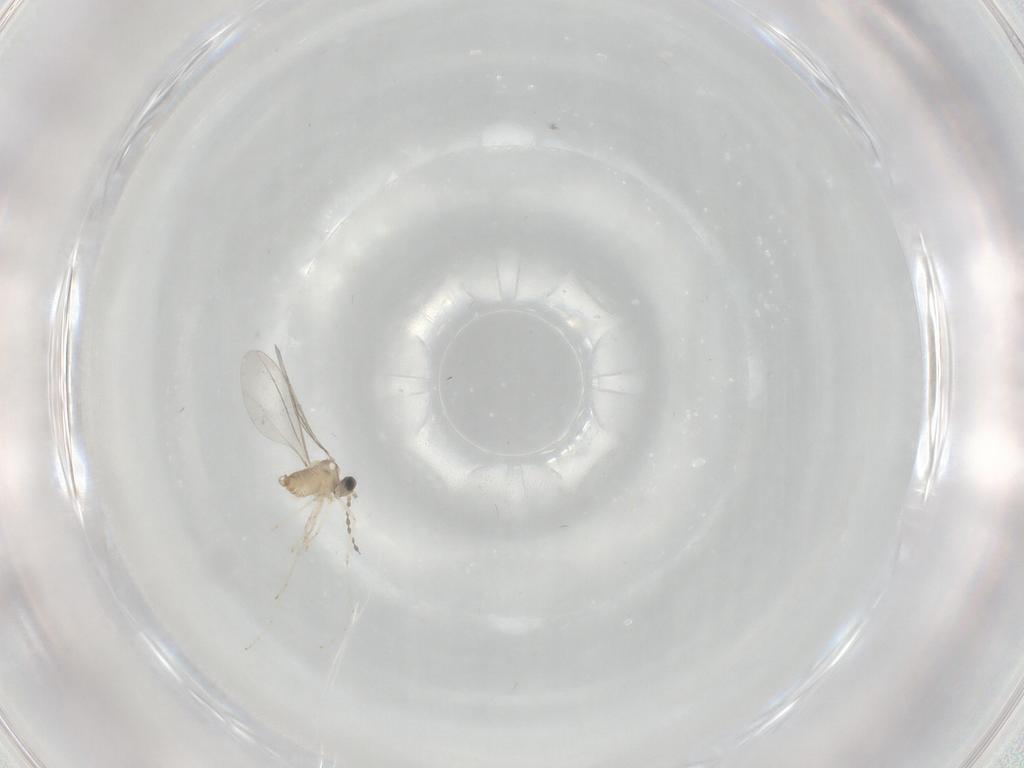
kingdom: Animalia
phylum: Arthropoda
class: Insecta
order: Diptera
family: Cecidomyiidae
